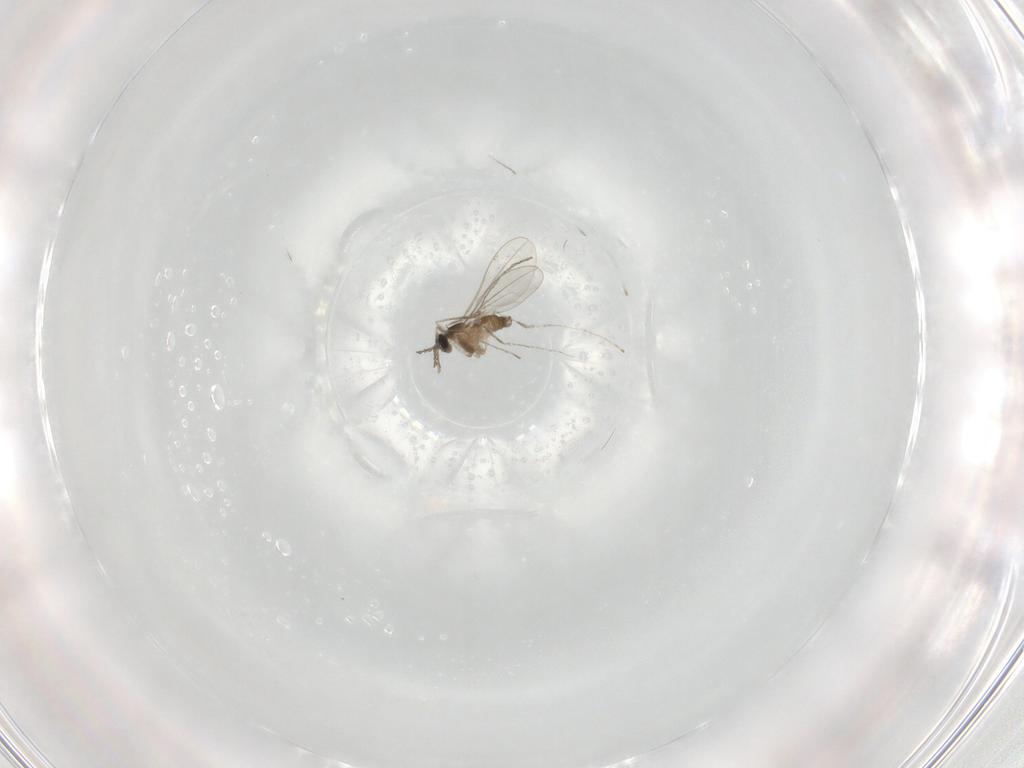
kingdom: Animalia
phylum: Arthropoda
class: Insecta
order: Diptera
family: Cecidomyiidae
